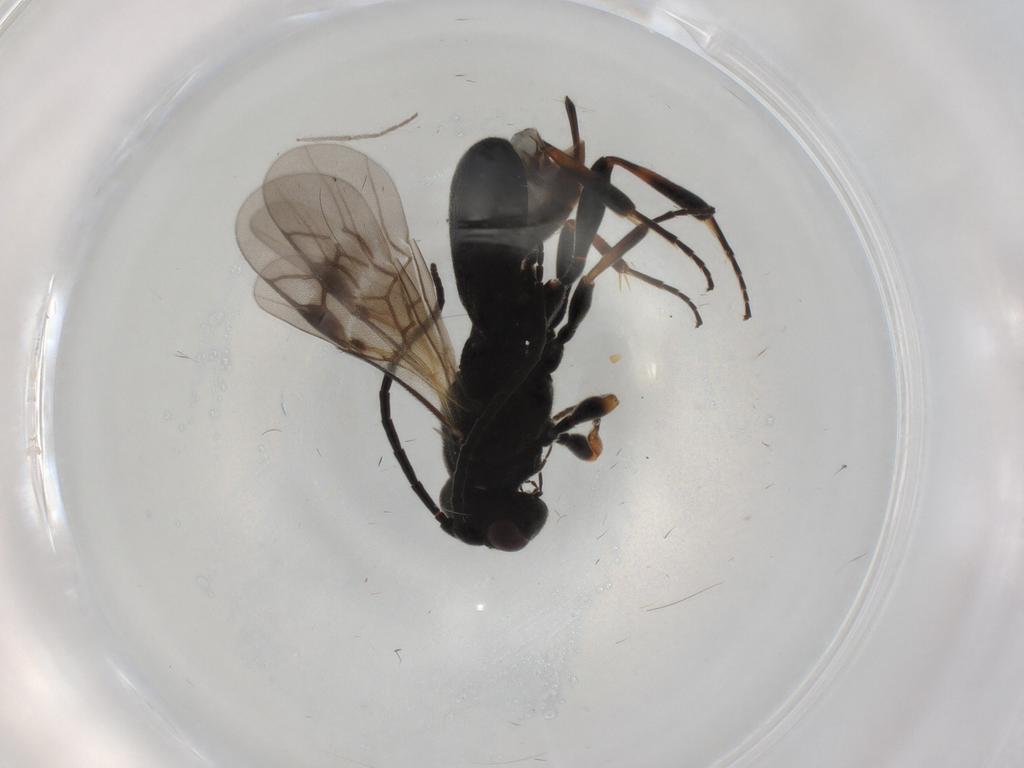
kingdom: Animalia
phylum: Arthropoda
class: Insecta
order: Hymenoptera
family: Braconidae
